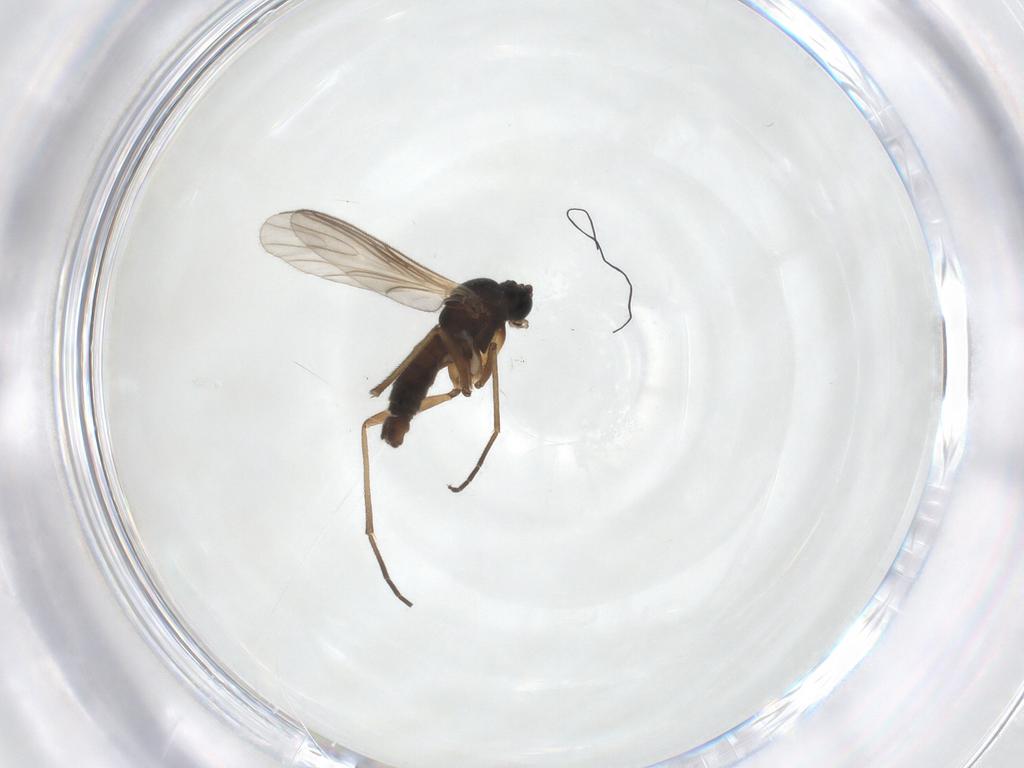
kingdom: Animalia
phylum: Arthropoda
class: Insecta
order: Diptera
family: Sciaridae
